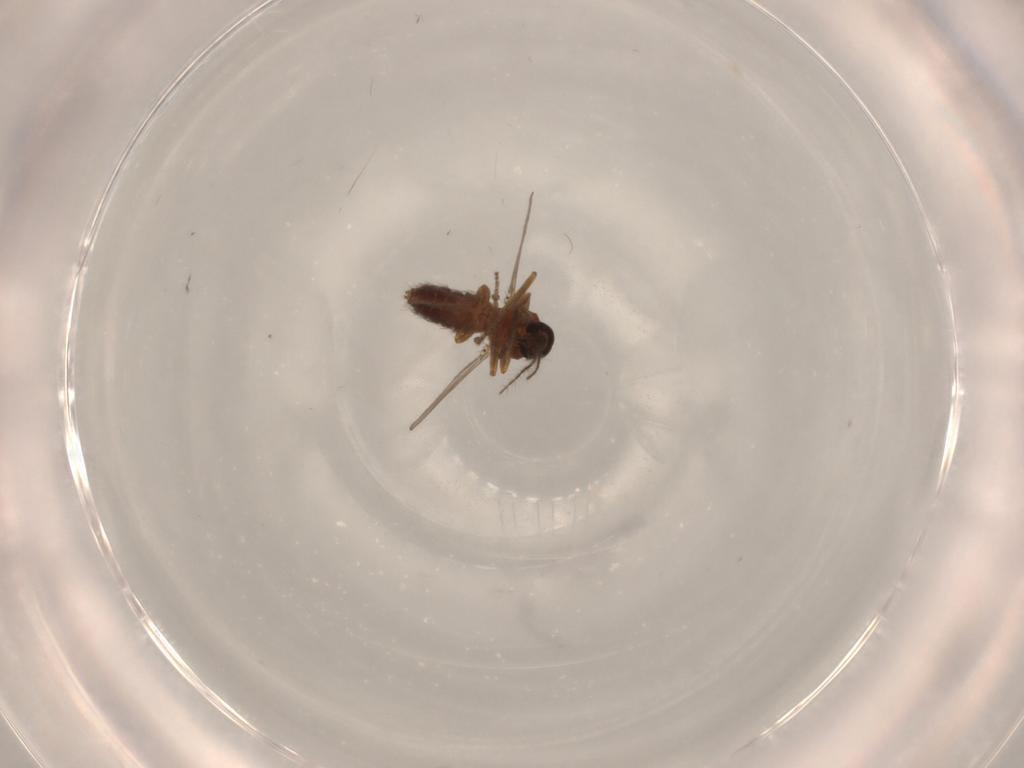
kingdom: Animalia
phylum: Arthropoda
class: Insecta
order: Diptera
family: Ceratopogonidae
